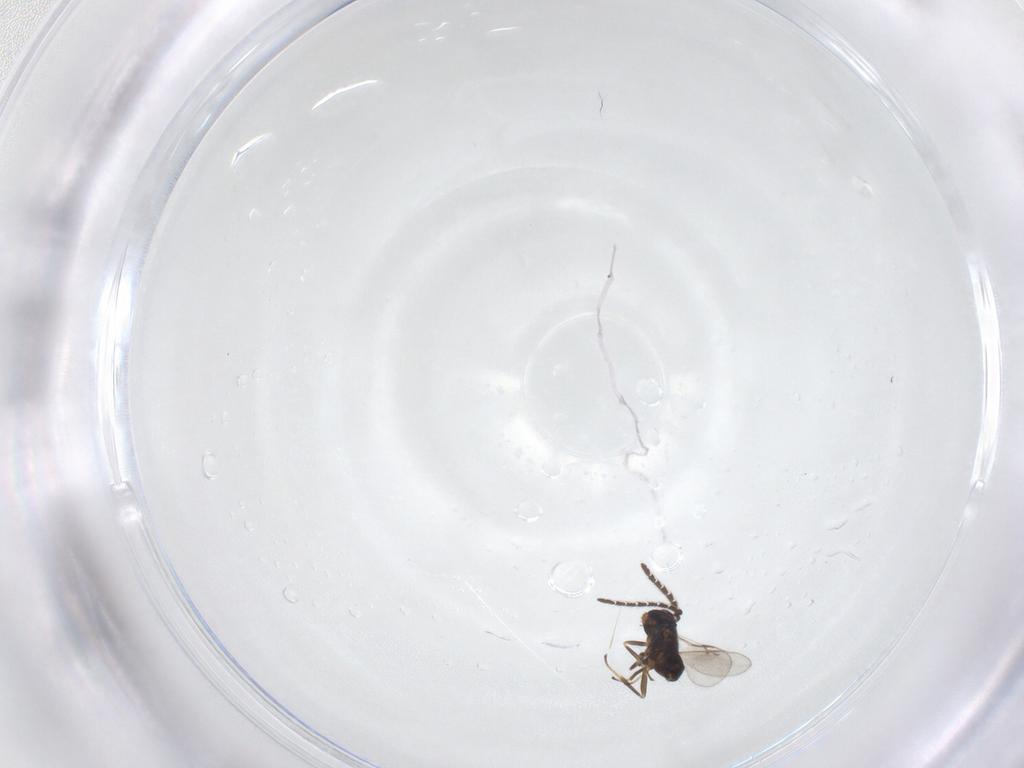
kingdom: Animalia
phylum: Arthropoda
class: Insecta
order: Hymenoptera
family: Encyrtidae
